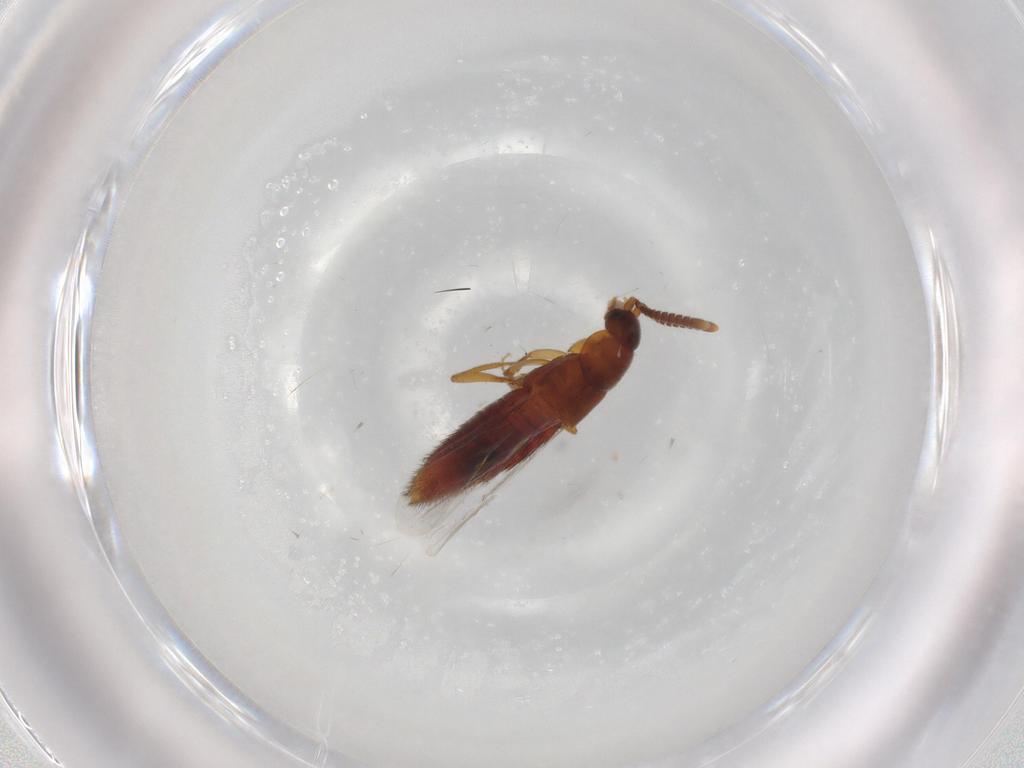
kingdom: Animalia
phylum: Arthropoda
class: Insecta
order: Coleoptera
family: Staphylinidae
